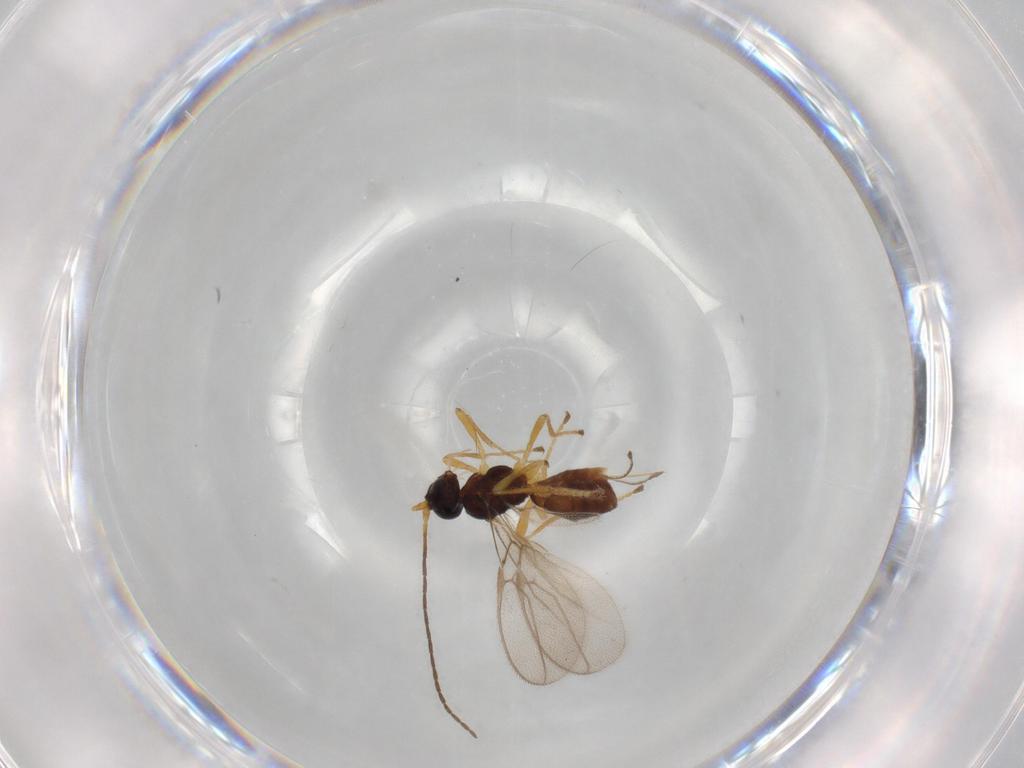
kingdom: Animalia
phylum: Arthropoda
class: Insecta
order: Hymenoptera
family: Braconidae
